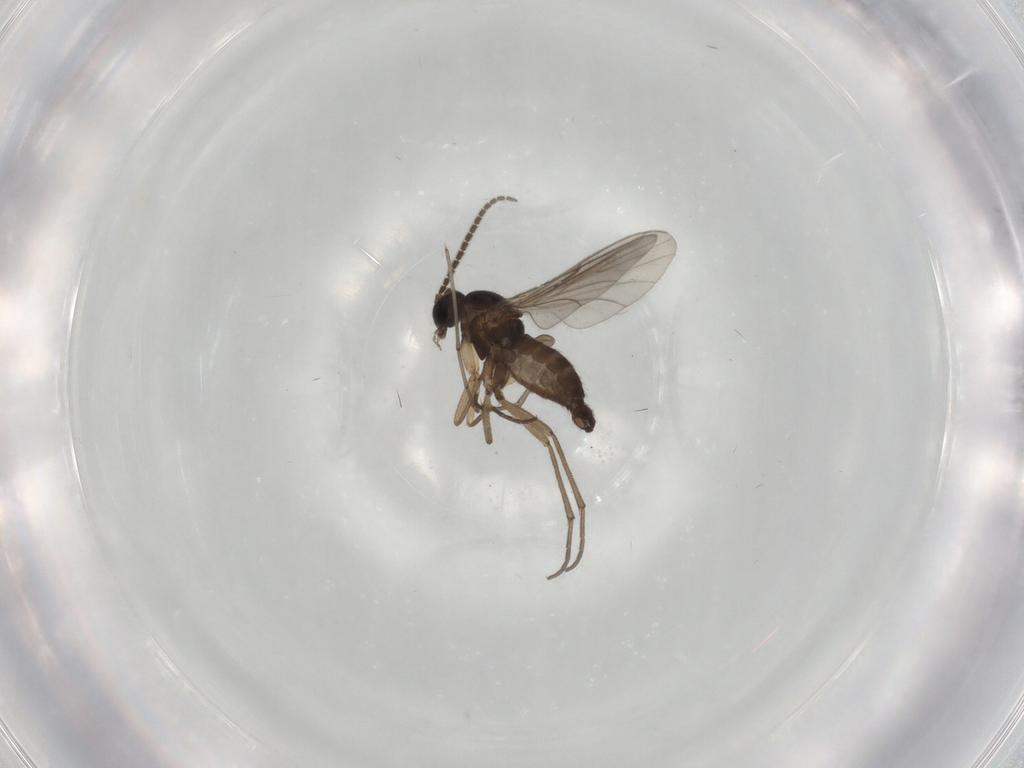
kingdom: Animalia
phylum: Arthropoda
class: Insecta
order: Diptera
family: Sciaridae
